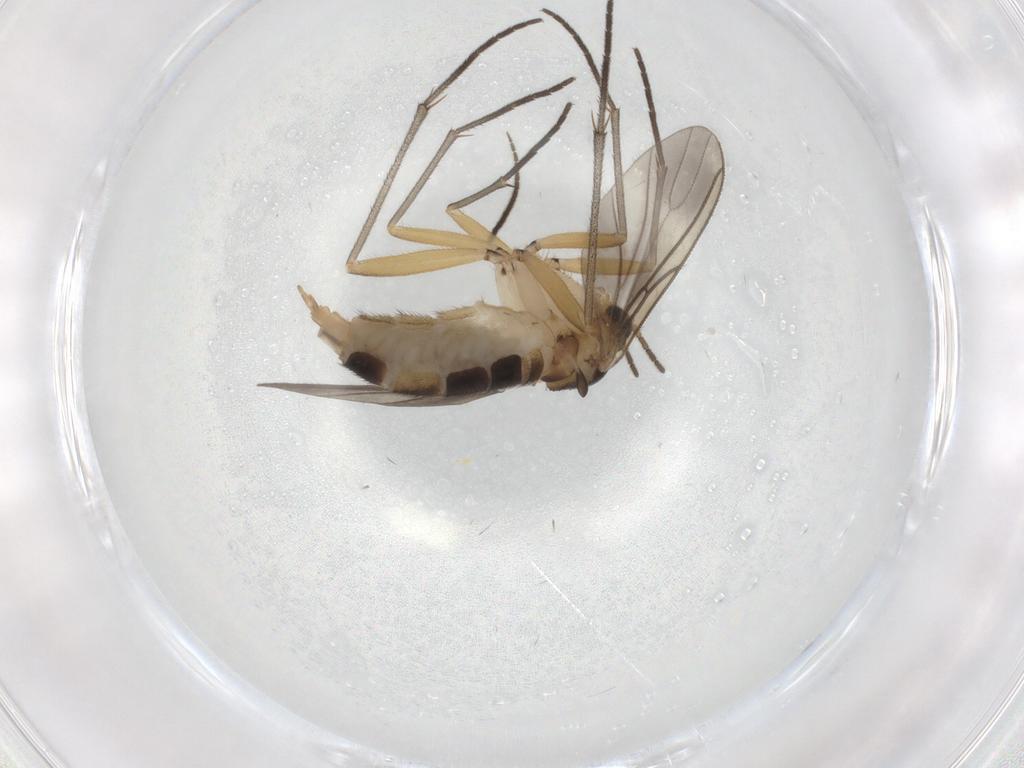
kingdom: Animalia
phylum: Arthropoda
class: Insecta
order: Diptera
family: Sciaridae
